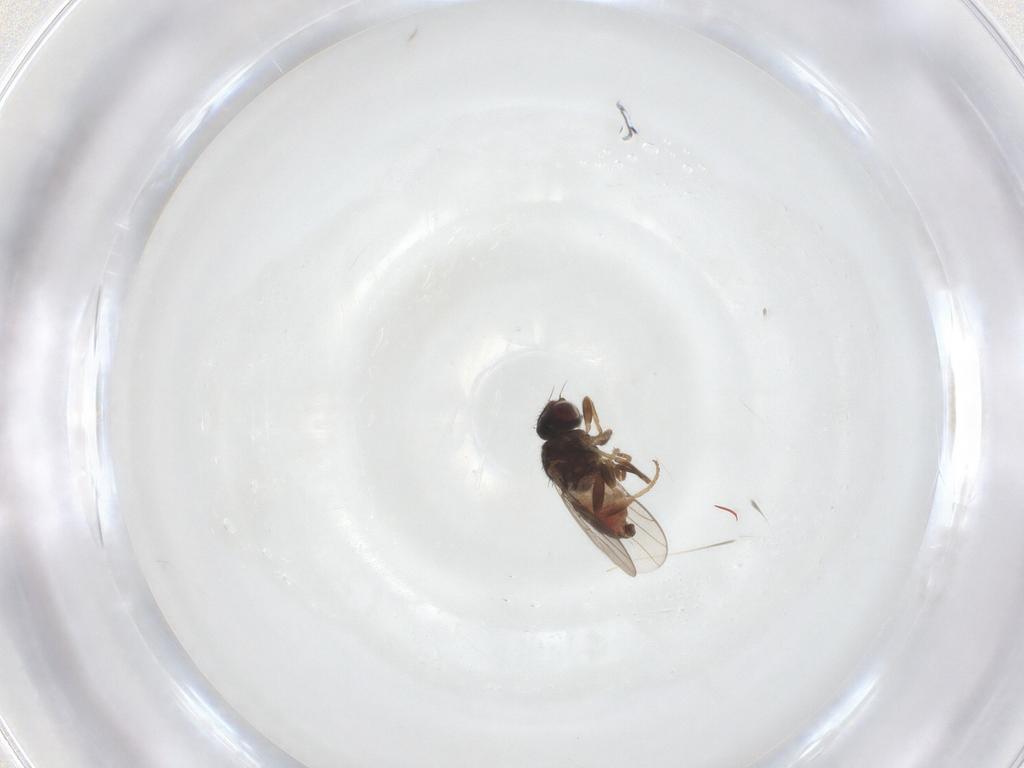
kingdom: Animalia
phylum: Arthropoda
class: Insecta
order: Diptera
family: Chloropidae
